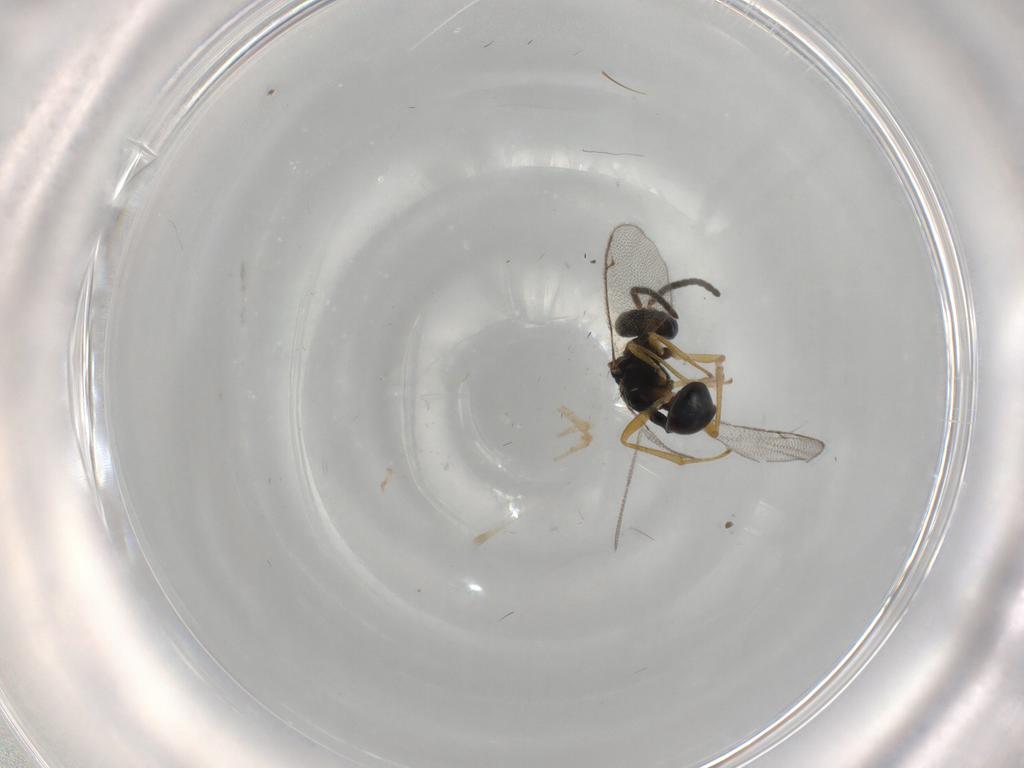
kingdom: Animalia
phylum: Arthropoda
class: Insecta
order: Hymenoptera
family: Diparidae
